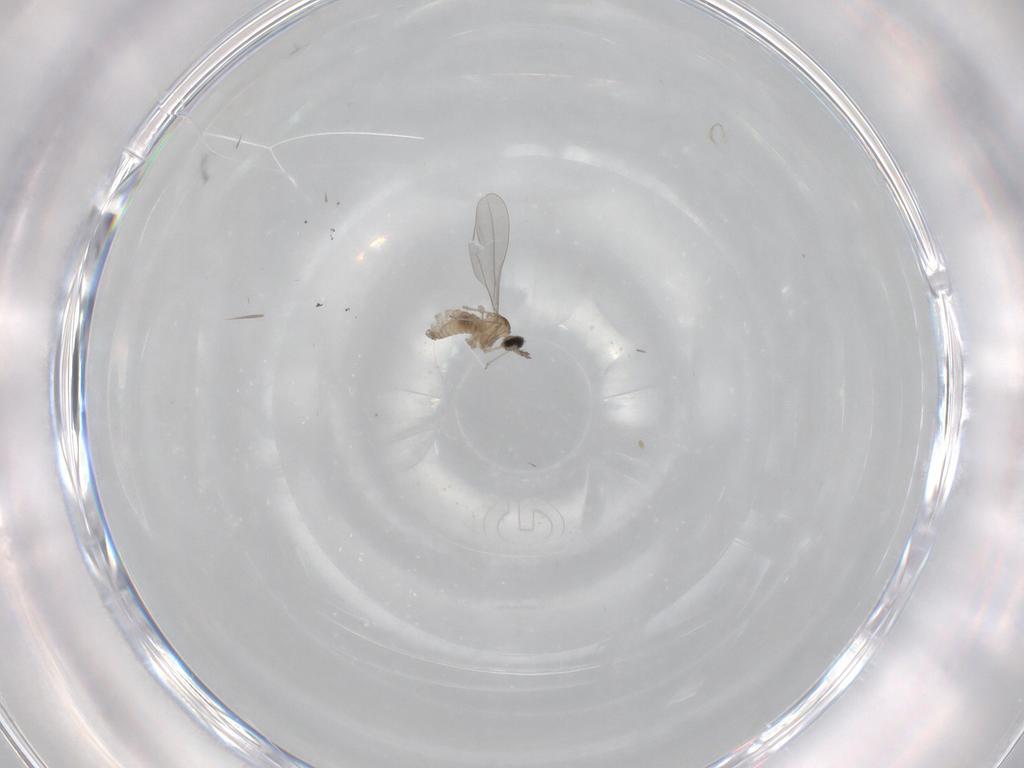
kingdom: Animalia
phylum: Arthropoda
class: Insecta
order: Diptera
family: Cecidomyiidae
